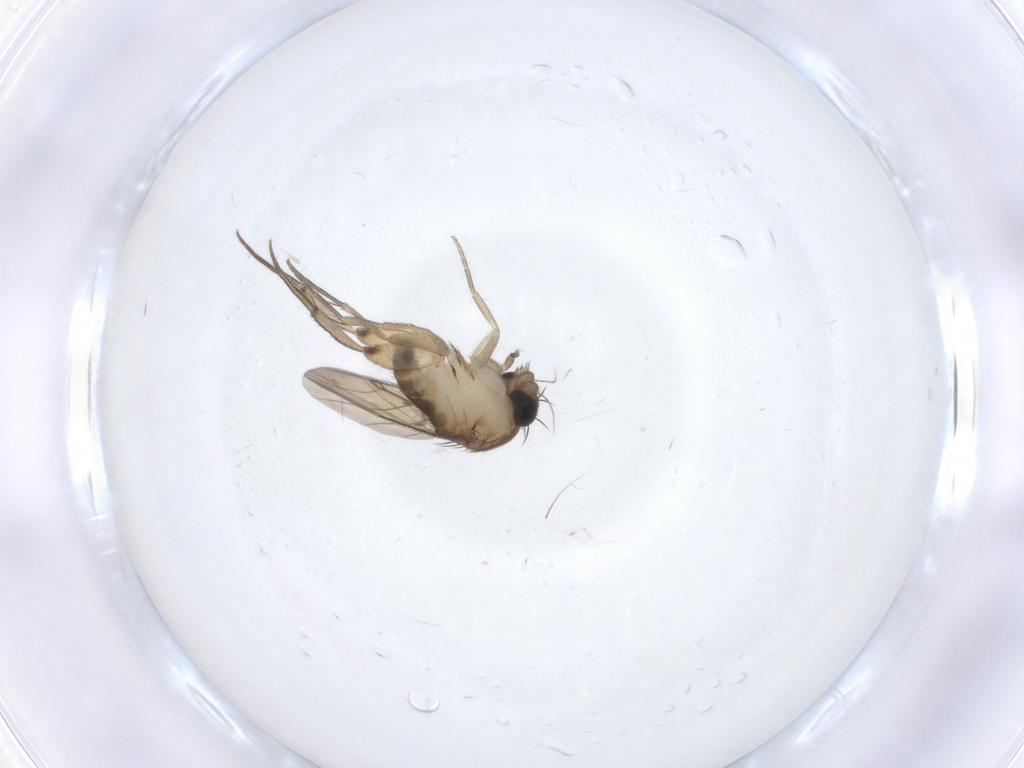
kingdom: Animalia
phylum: Arthropoda
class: Insecta
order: Diptera
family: Phoridae
